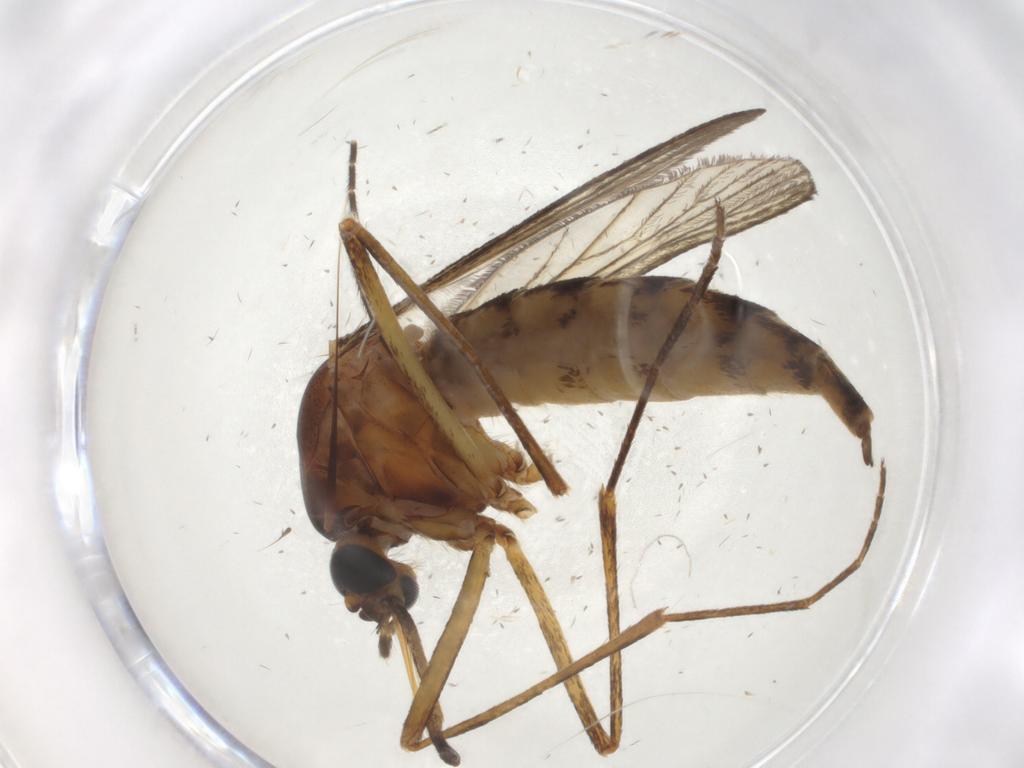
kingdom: Animalia
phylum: Arthropoda
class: Insecta
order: Diptera
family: Culicidae
